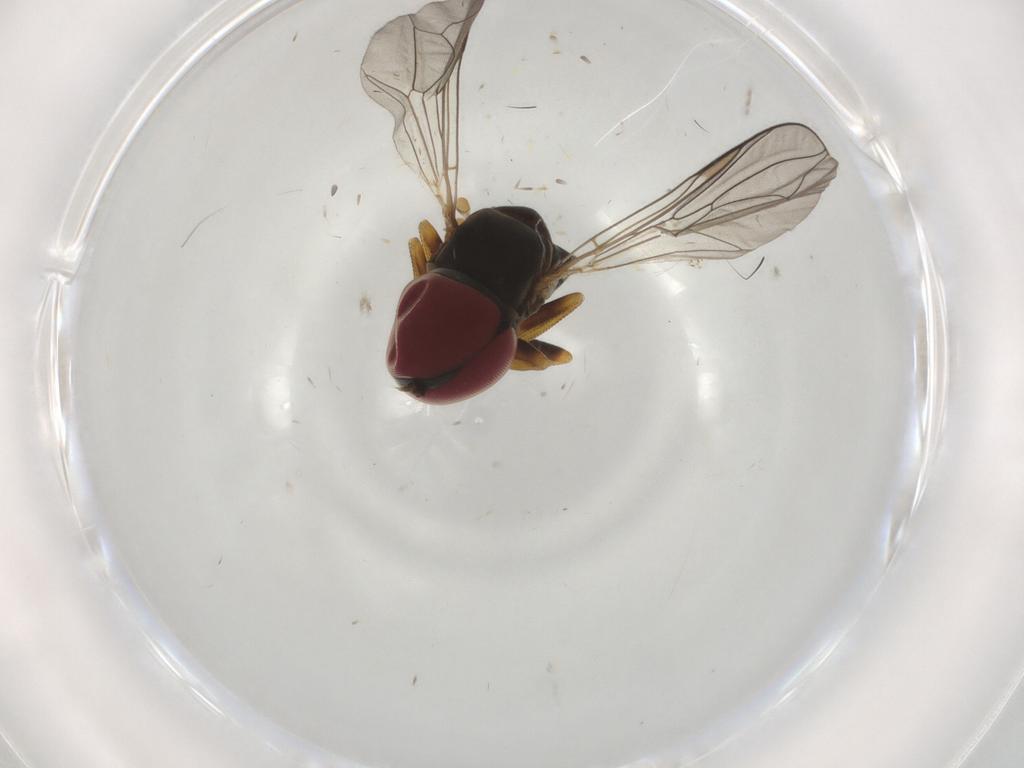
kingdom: Animalia
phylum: Arthropoda
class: Insecta
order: Diptera
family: Pipunculidae
